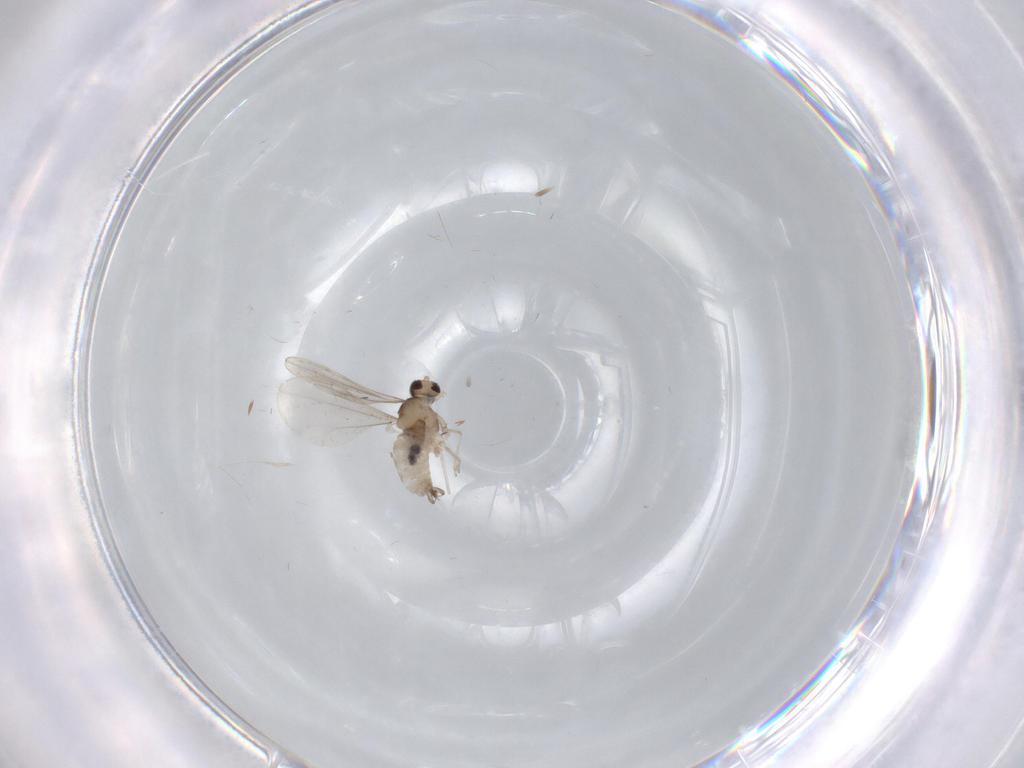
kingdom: Animalia
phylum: Arthropoda
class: Insecta
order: Diptera
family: Cecidomyiidae
